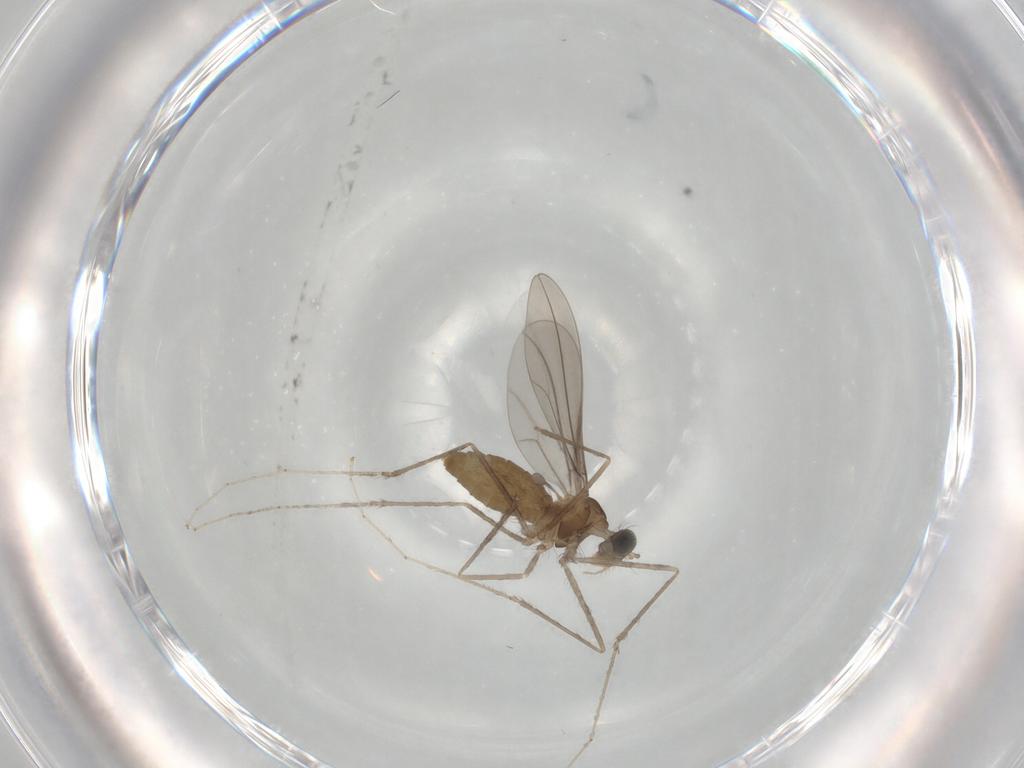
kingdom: Animalia
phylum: Arthropoda
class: Insecta
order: Diptera
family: Cecidomyiidae
